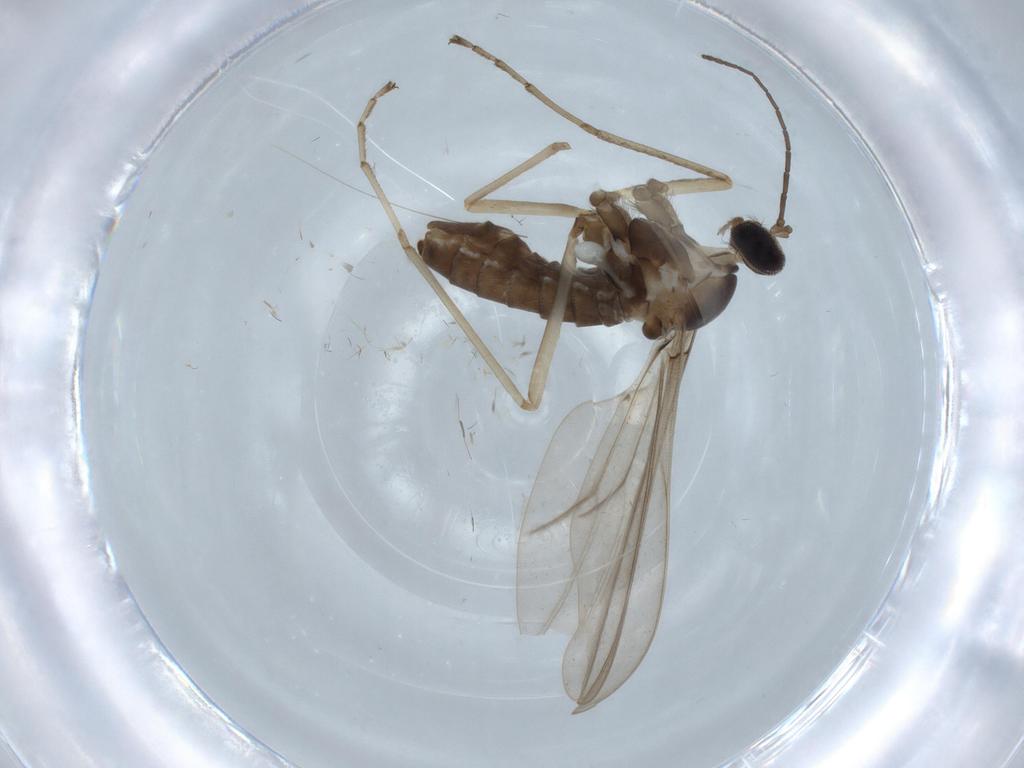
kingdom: Animalia
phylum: Arthropoda
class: Insecta
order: Diptera
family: Cecidomyiidae
